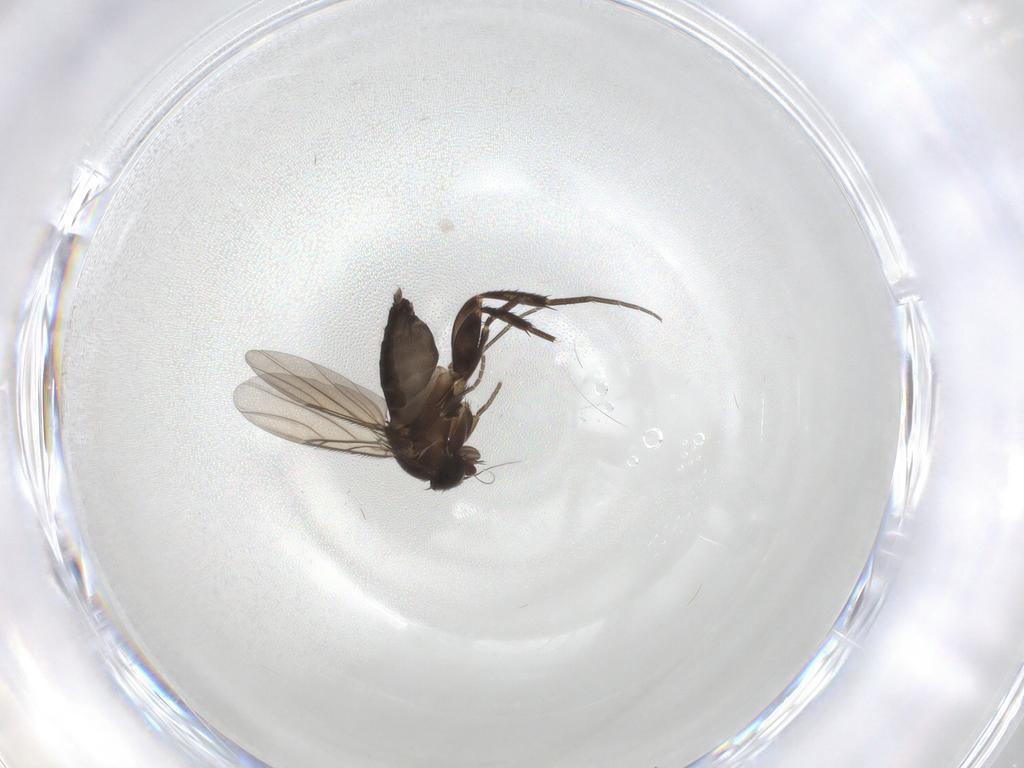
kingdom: Animalia
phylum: Arthropoda
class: Insecta
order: Diptera
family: Phoridae
